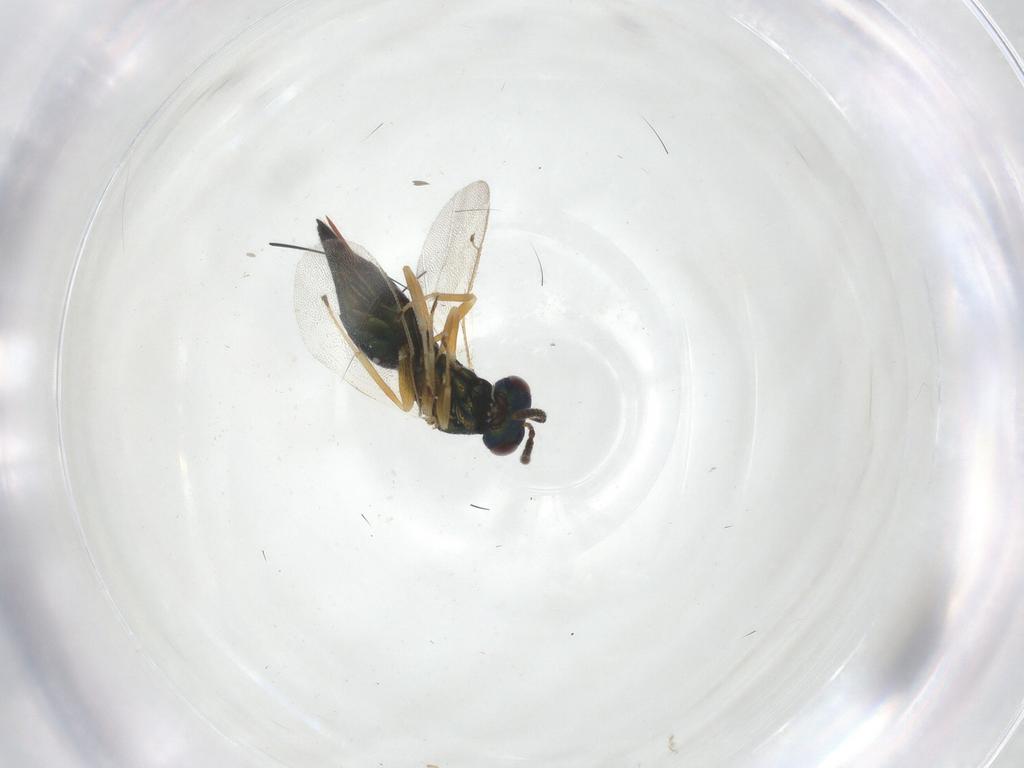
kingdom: Animalia
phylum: Arthropoda
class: Insecta
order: Hymenoptera
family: Pteromalidae
